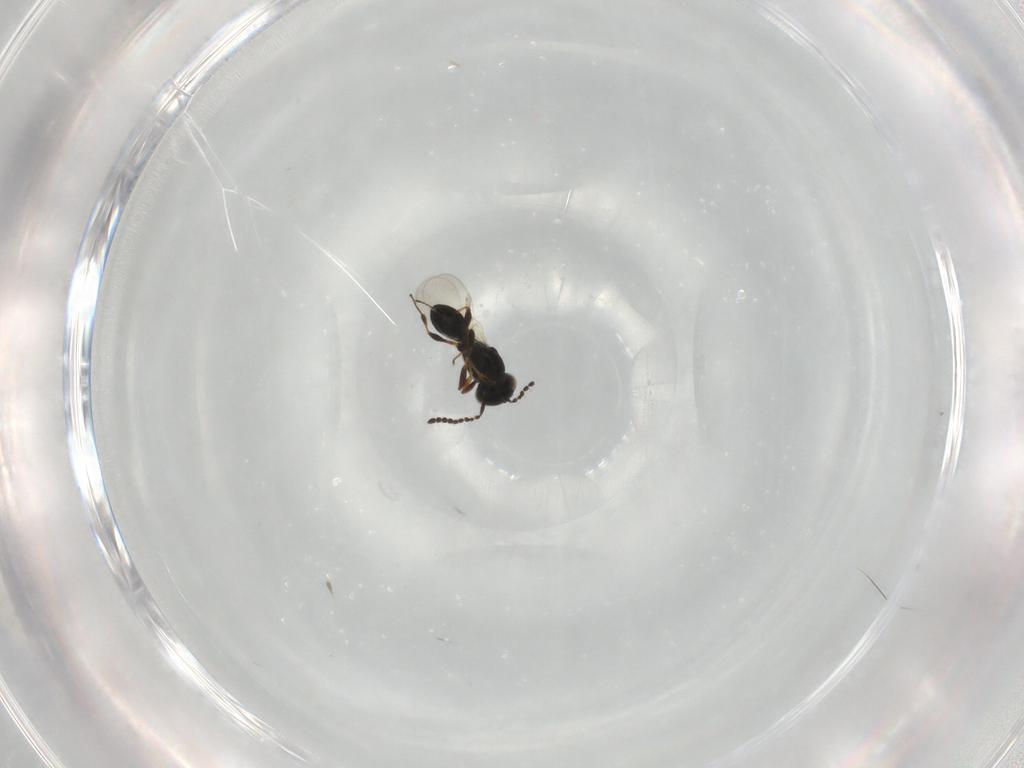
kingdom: Animalia
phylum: Arthropoda
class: Insecta
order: Hymenoptera
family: Platygastridae
